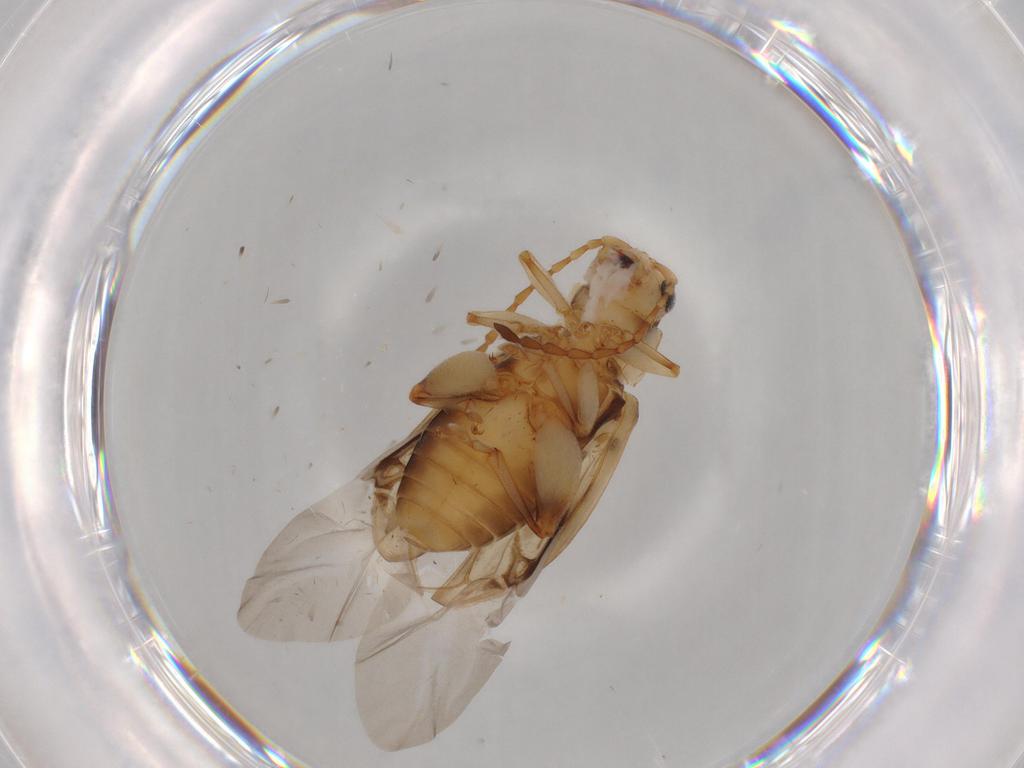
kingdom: Animalia
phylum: Arthropoda
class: Insecta
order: Coleoptera
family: Chrysomelidae
